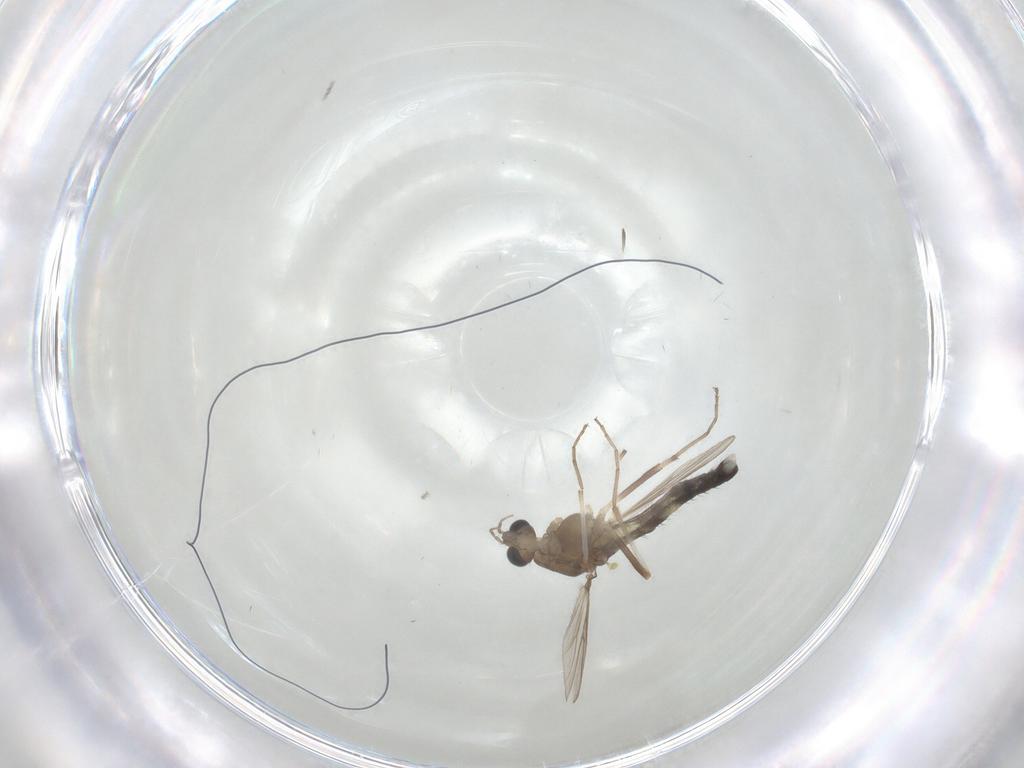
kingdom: Animalia
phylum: Arthropoda
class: Insecta
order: Diptera
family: Chironomidae
